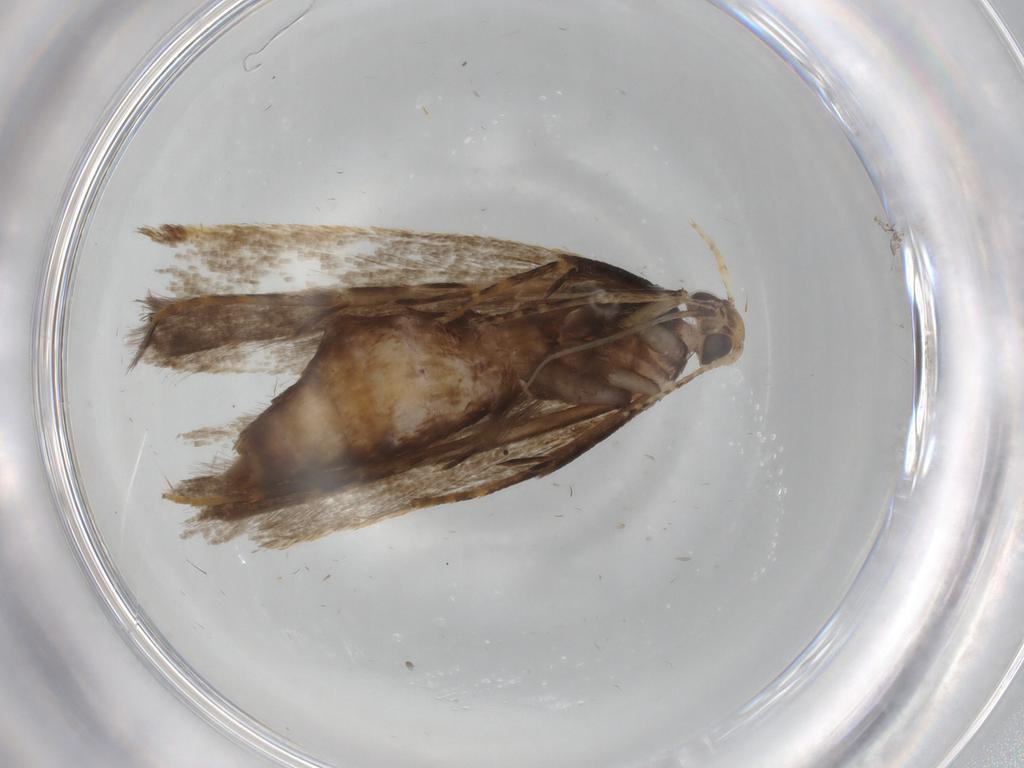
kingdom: Animalia
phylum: Arthropoda
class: Insecta
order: Lepidoptera
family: Gelechiidae
